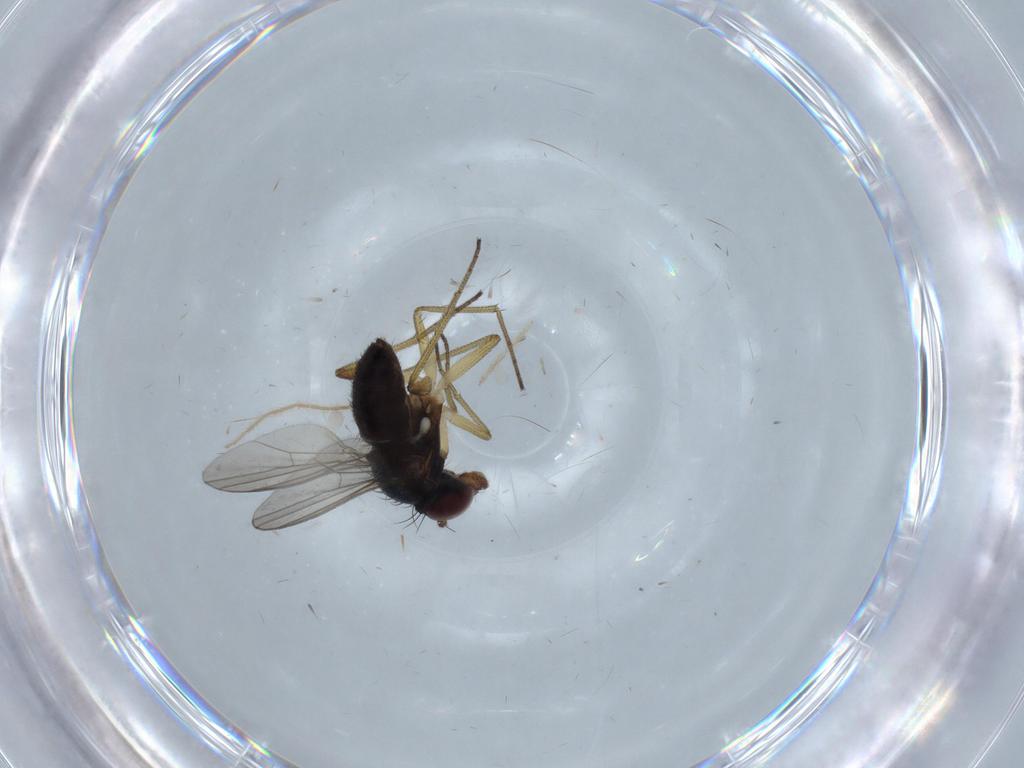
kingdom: Animalia
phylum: Arthropoda
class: Insecta
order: Diptera
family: Dolichopodidae
